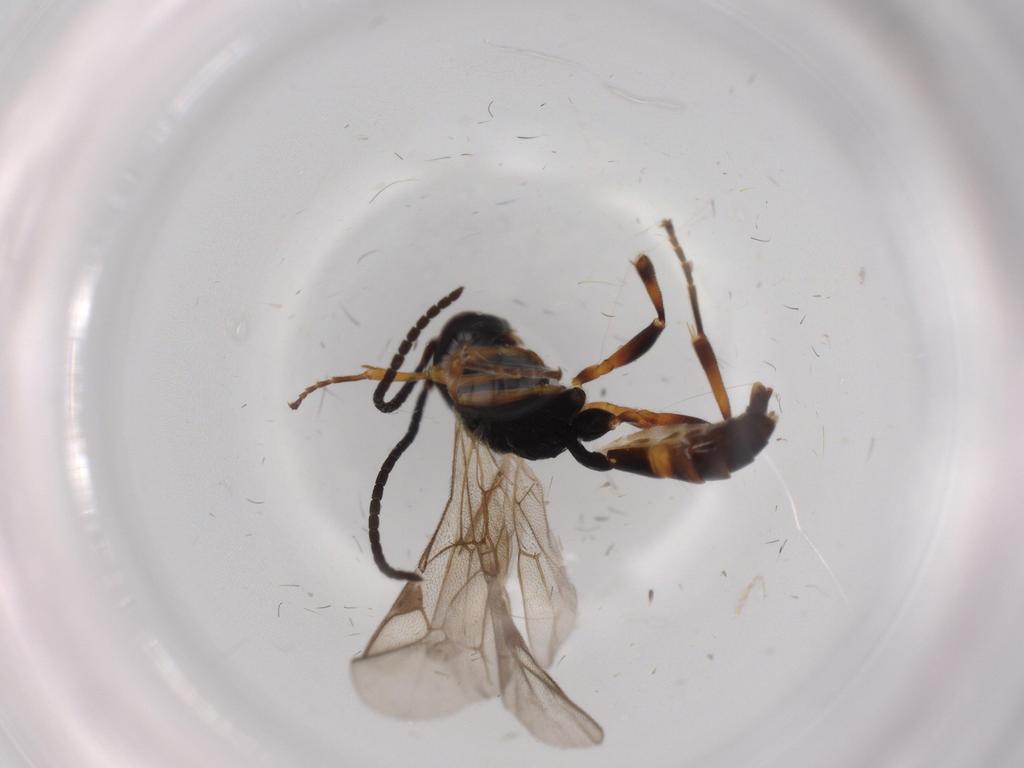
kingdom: Animalia
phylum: Arthropoda
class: Insecta
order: Hymenoptera
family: Ichneumonidae
